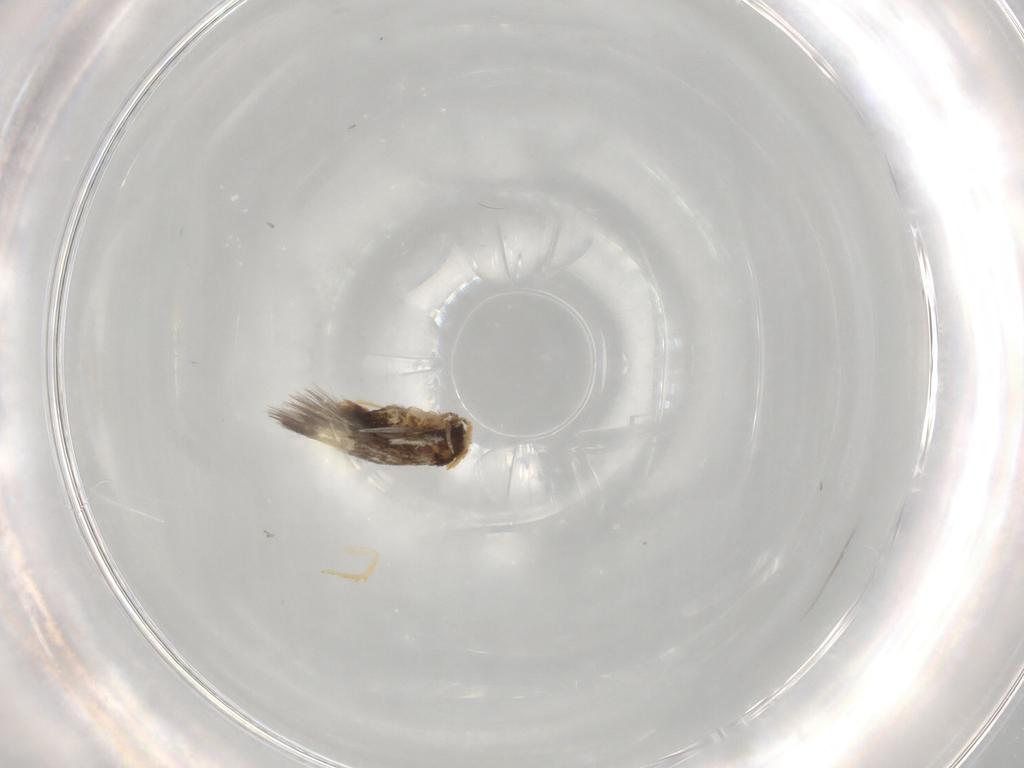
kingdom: Animalia
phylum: Arthropoda
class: Insecta
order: Lepidoptera
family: Nepticulidae
